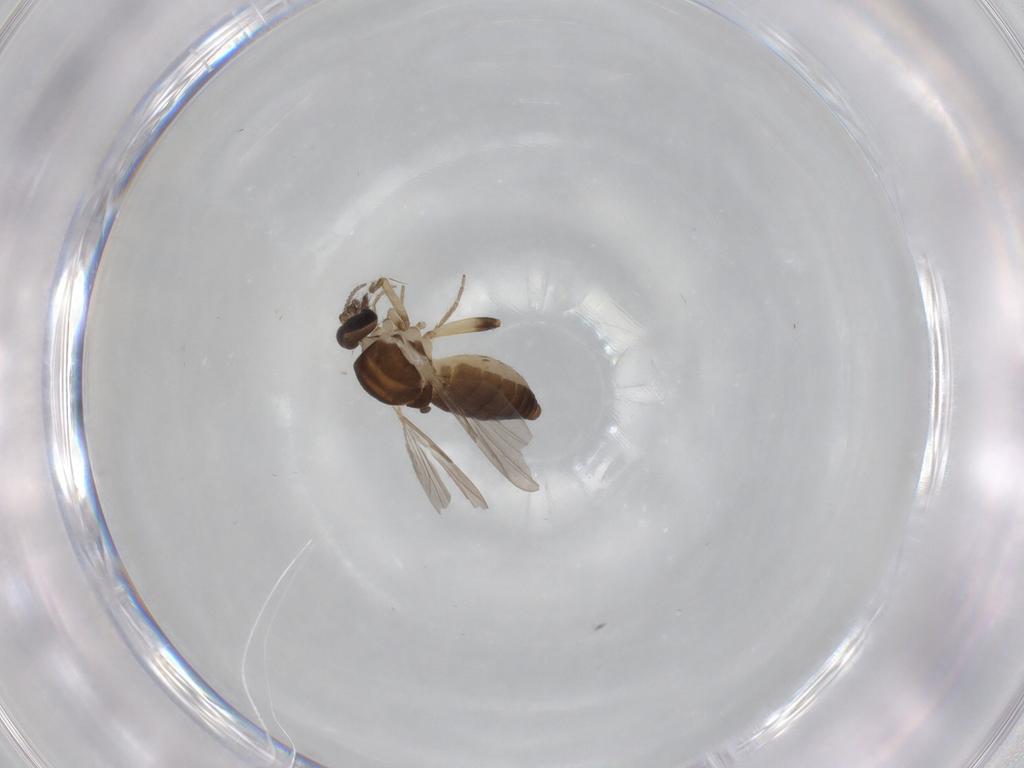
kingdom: Animalia
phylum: Arthropoda
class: Insecta
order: Diptera
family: Ceratopogonidae
